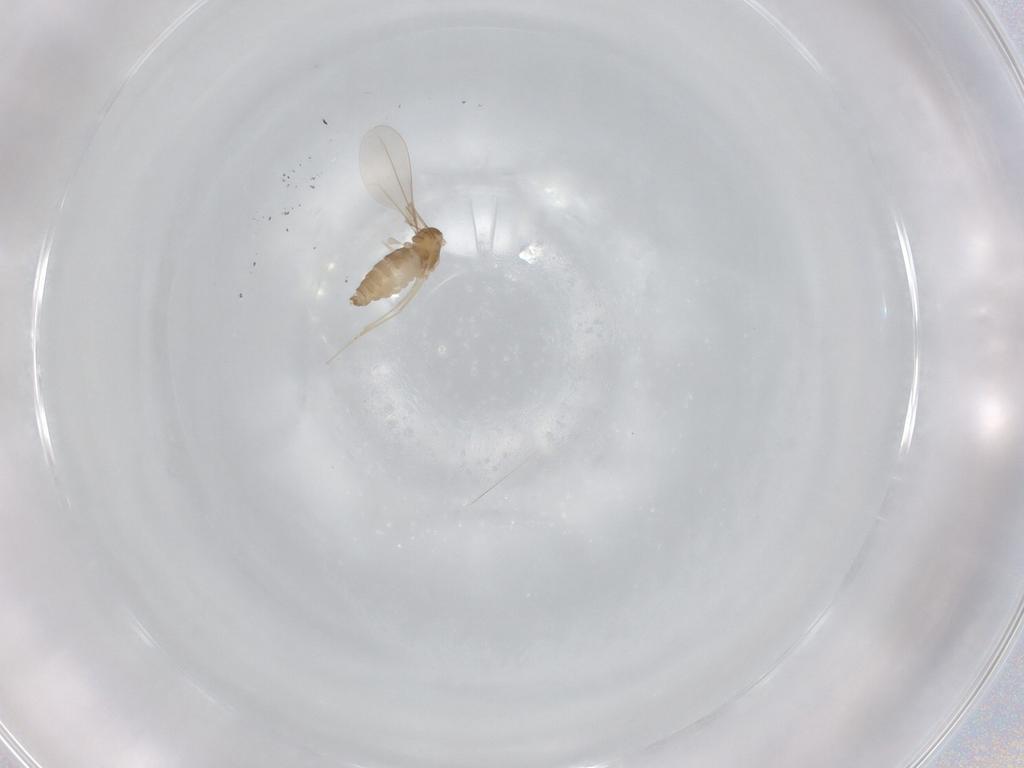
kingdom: Animalia
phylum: Arthropoda
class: Insecta
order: Diptera
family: Cecidomyiidae
